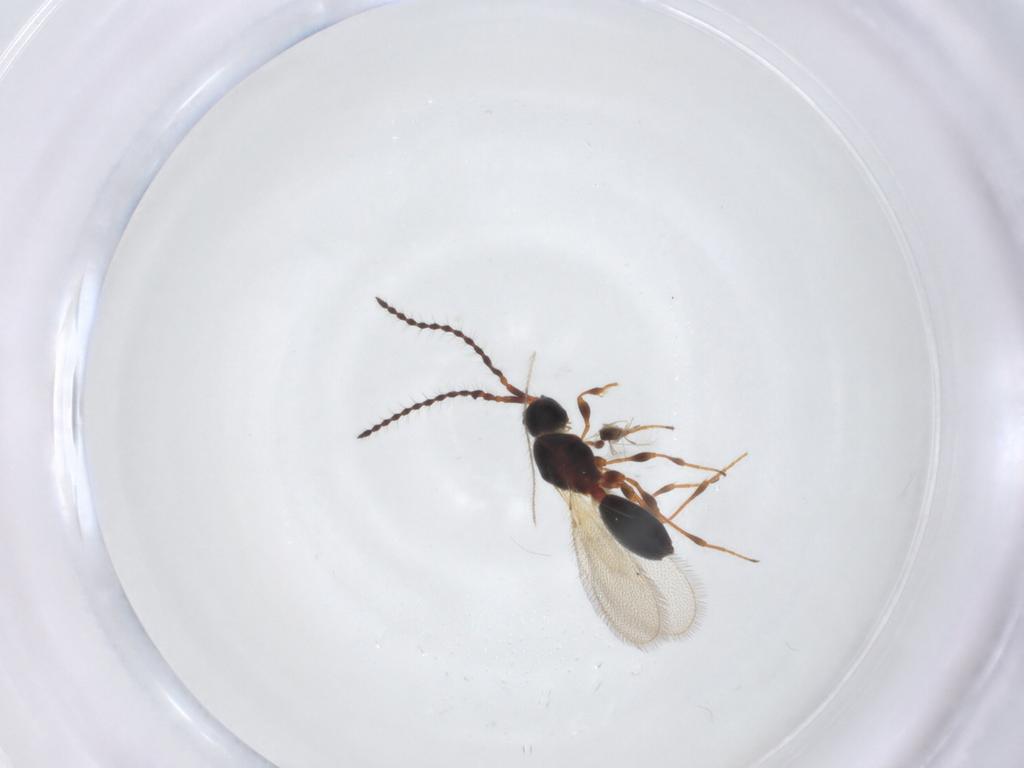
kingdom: Animalia
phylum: Arthropoda
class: Insecta
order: Hymenoptera
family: Diapriidae
